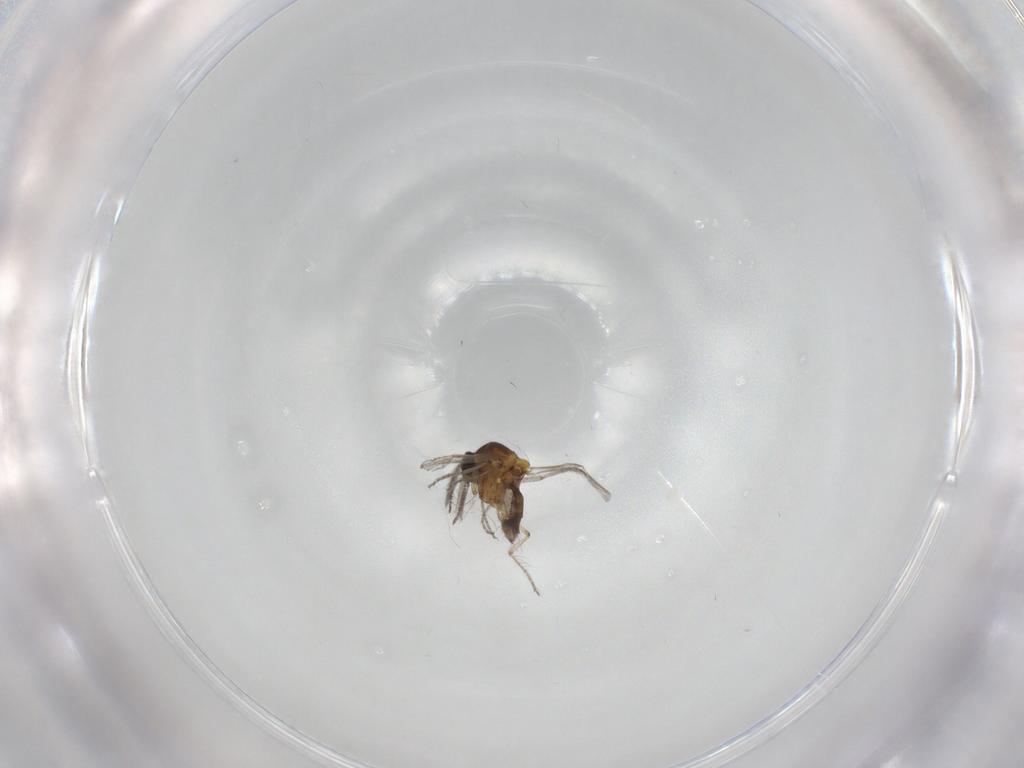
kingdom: Animalia
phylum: Arthropoda
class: Insecta
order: Diptera
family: Ceratopogonidae
